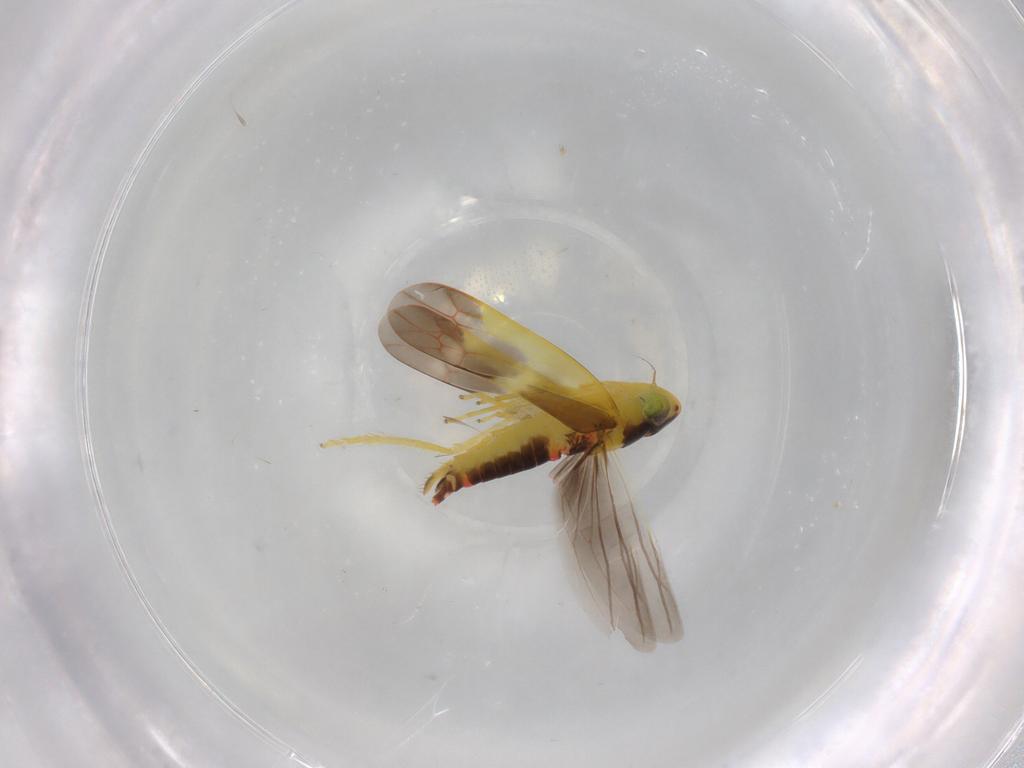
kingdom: Animalia
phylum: Arthropoda
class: Insecta
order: Hemiptera
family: Cicadellidae
